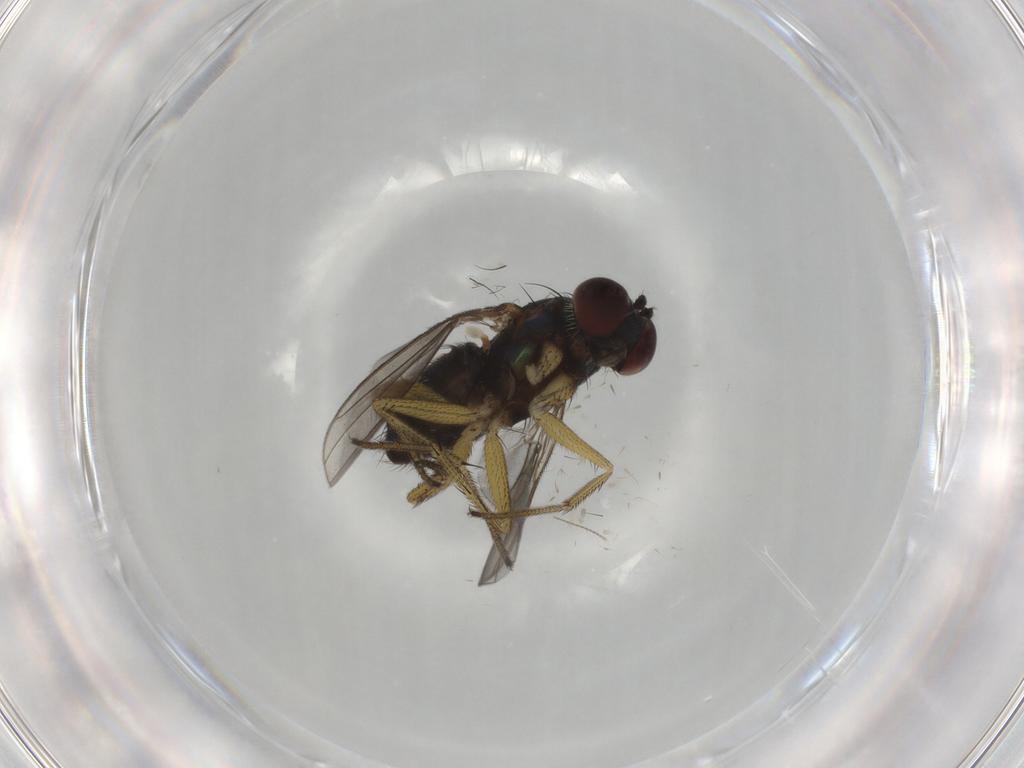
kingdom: Animalia
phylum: Arthropoda
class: Insecta
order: Diptera
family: Dolichopodidae
